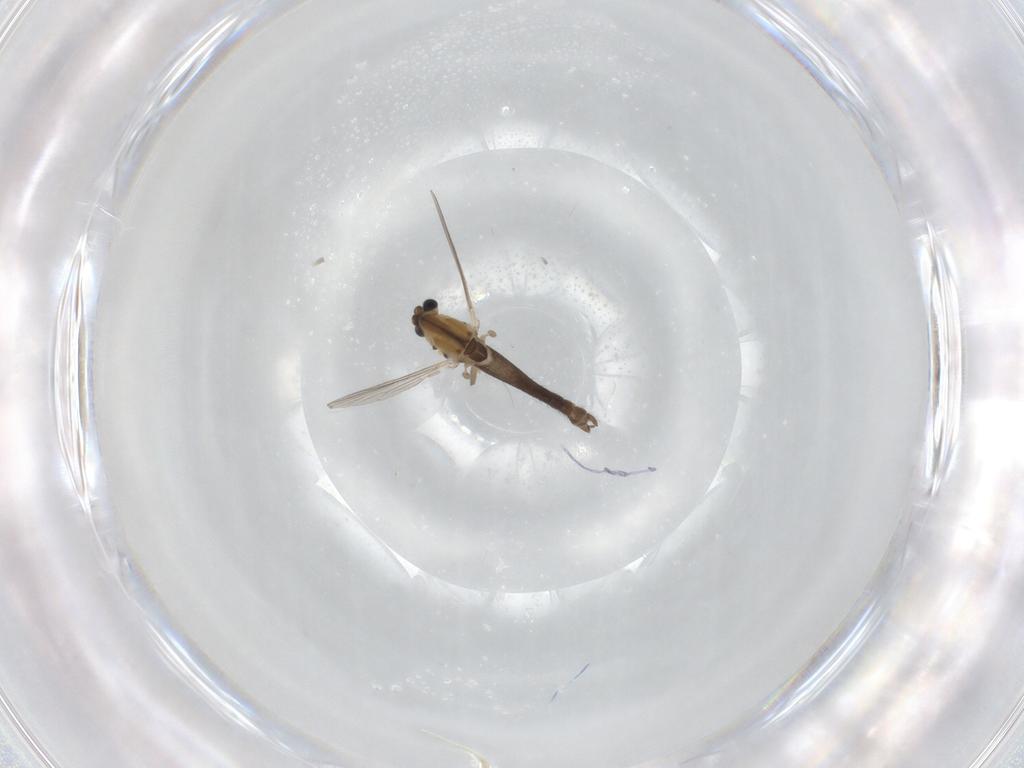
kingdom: Animalia
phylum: Arthropoda
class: Insecta
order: Diptera
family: Chironomidae
